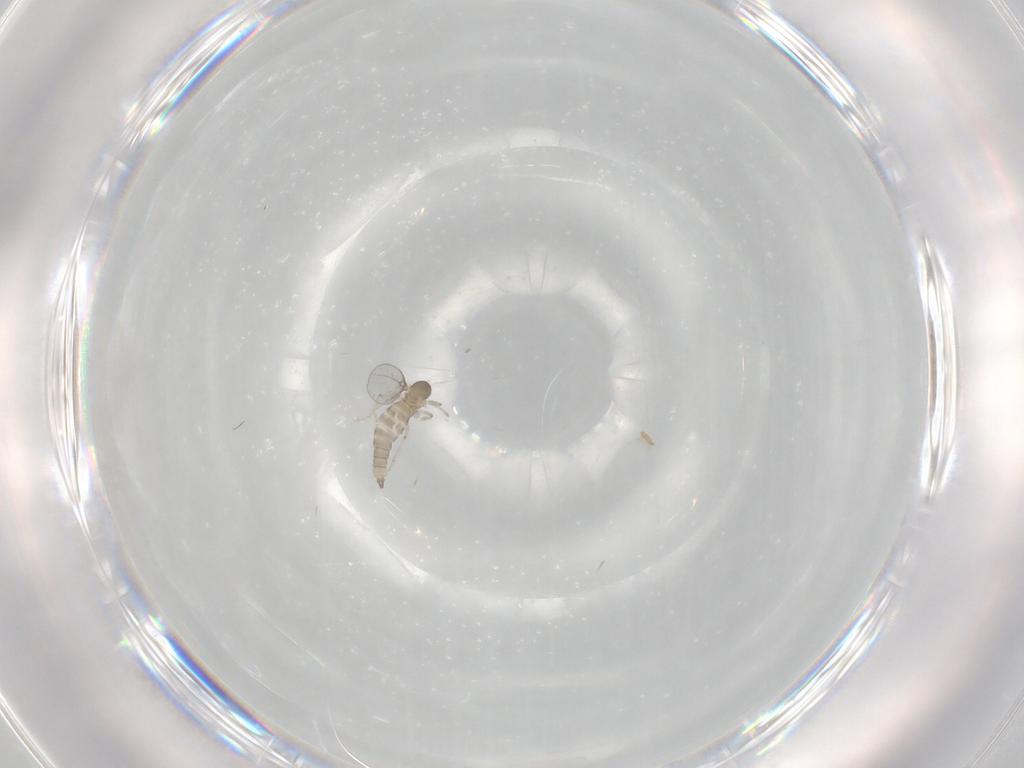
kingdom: Animalia
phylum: Arthropoda
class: Insecta
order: Diptera
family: Cecidomyiidae
